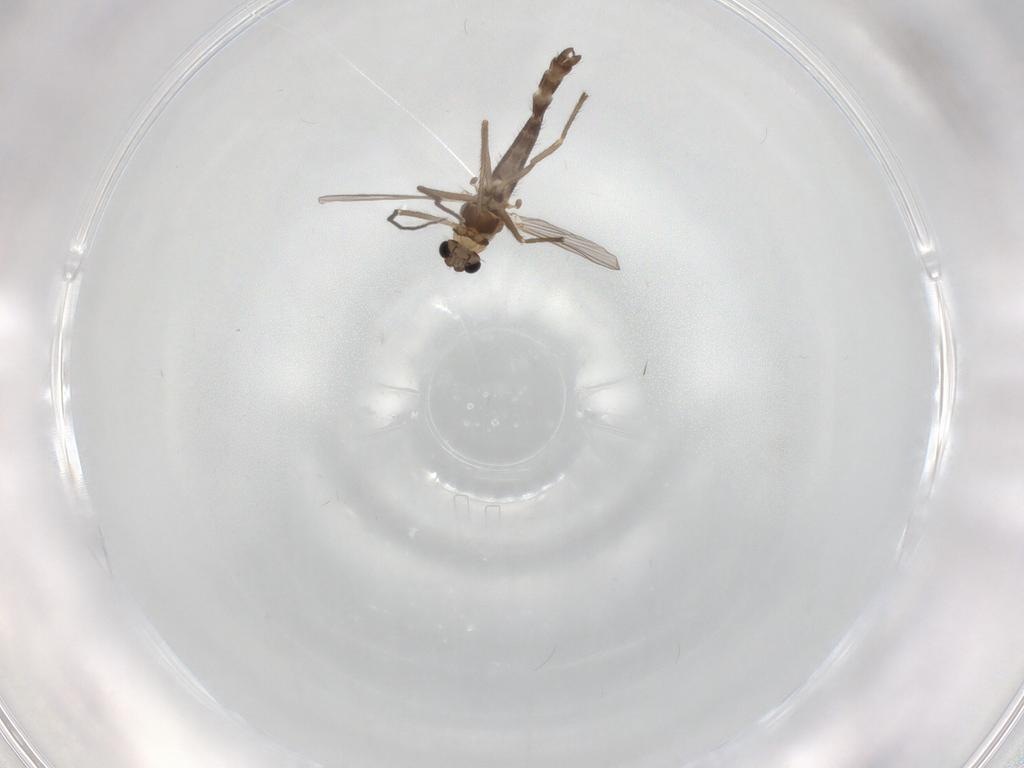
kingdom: Animalia
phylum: Arthropoda
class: Insecta
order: Diptera
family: Chironomidae
